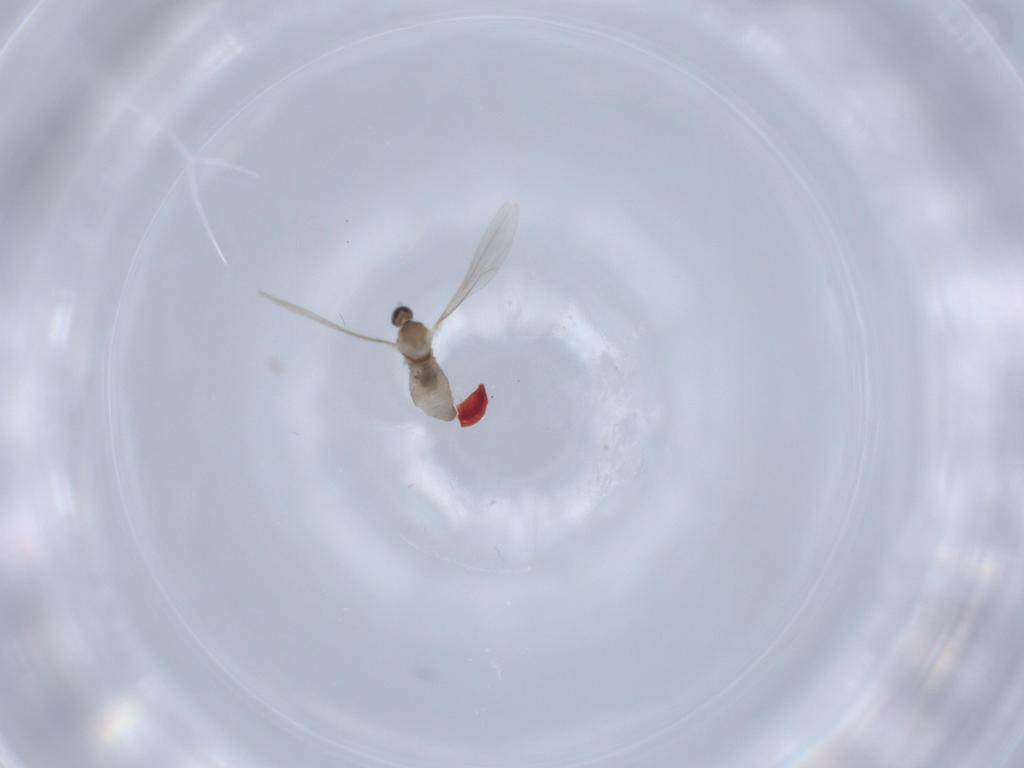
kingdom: Animalia
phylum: Arthropoda
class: Insecta
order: Diptera
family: Cecidomyiidae
